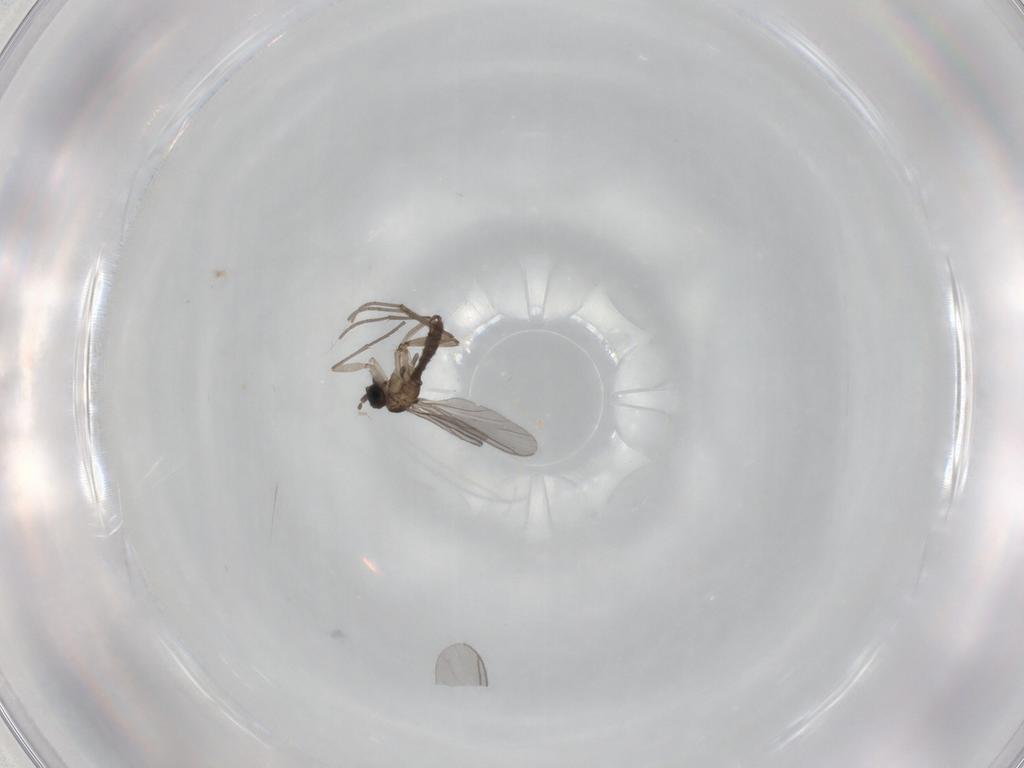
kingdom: Animalia
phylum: Arthropoda
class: Insecta
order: Diptera
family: Sciaridae
